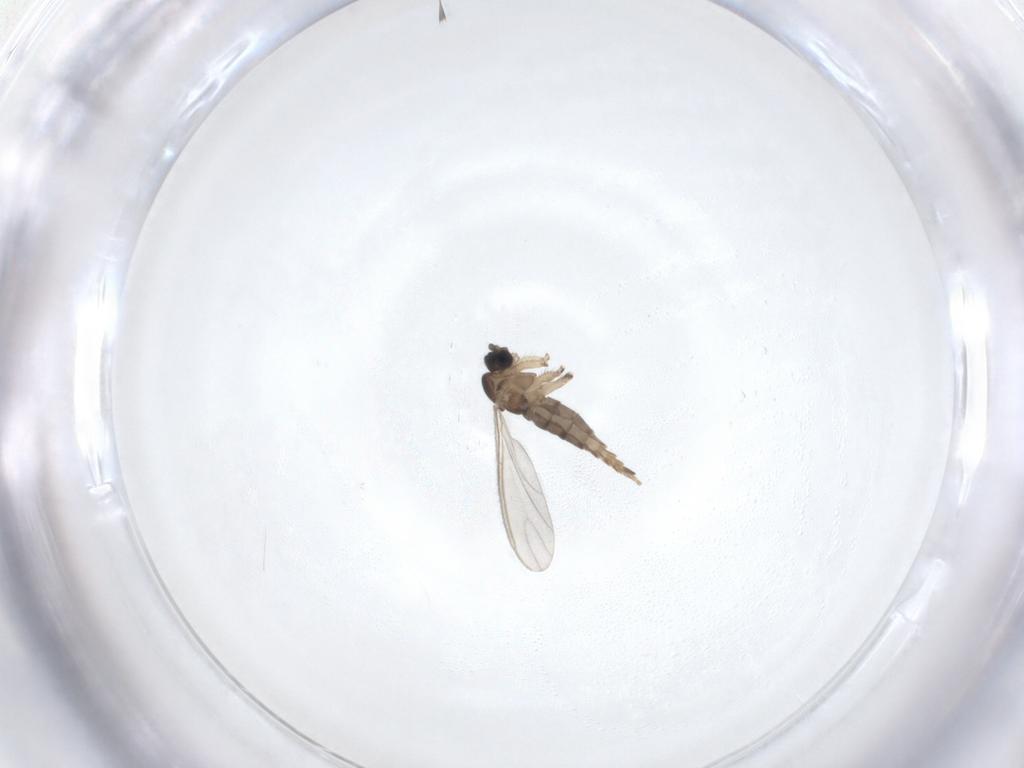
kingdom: Animalia
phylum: Arthropoda
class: Insecta
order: Diptera
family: Sciaridae
